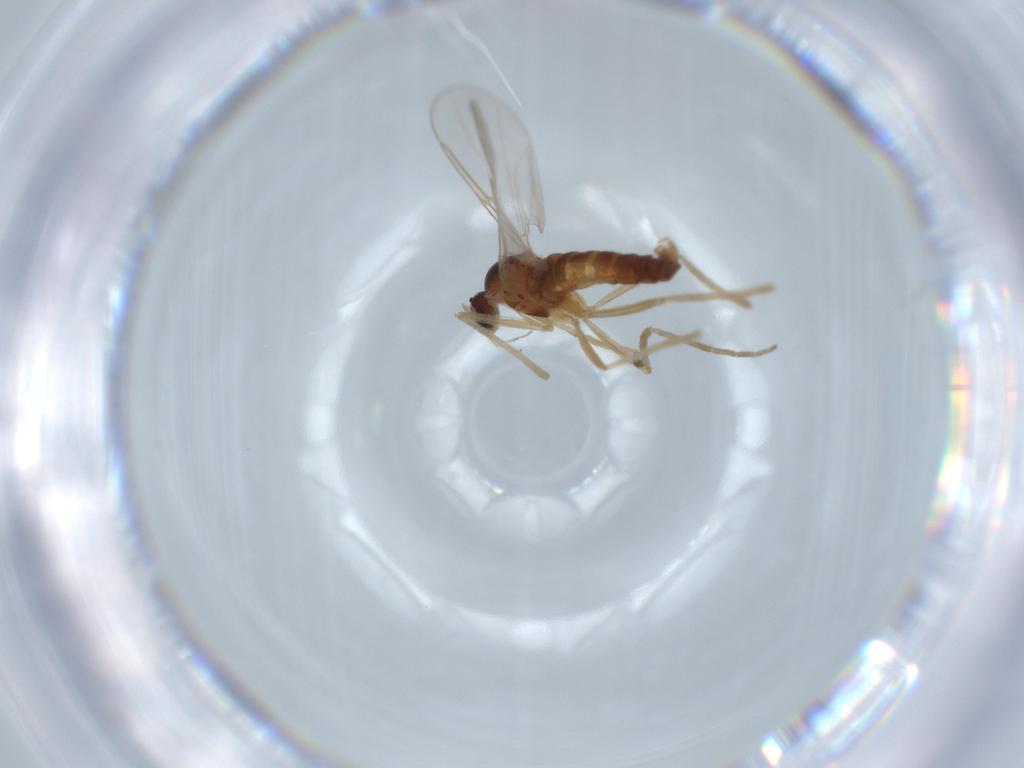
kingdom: Animalia
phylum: Arthropoda
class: Insecta
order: Diptera
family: Cecidomyiidae
